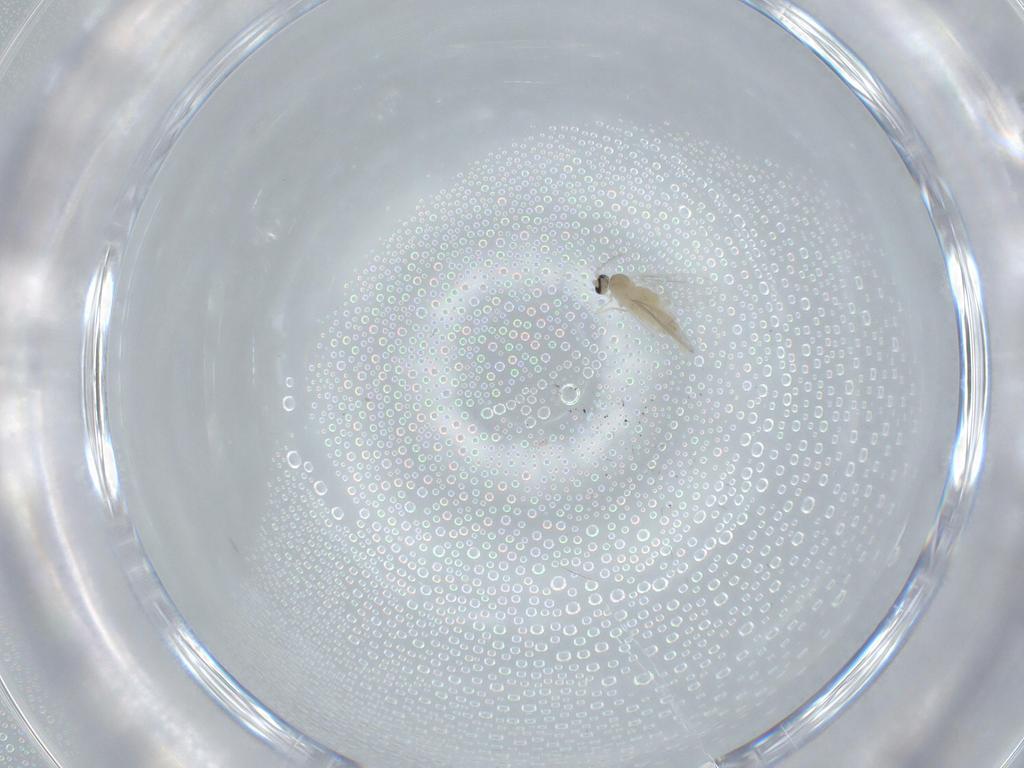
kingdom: Animalia
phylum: Arthropoda
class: Insecta
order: Diptera
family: Cecidomyiidae
